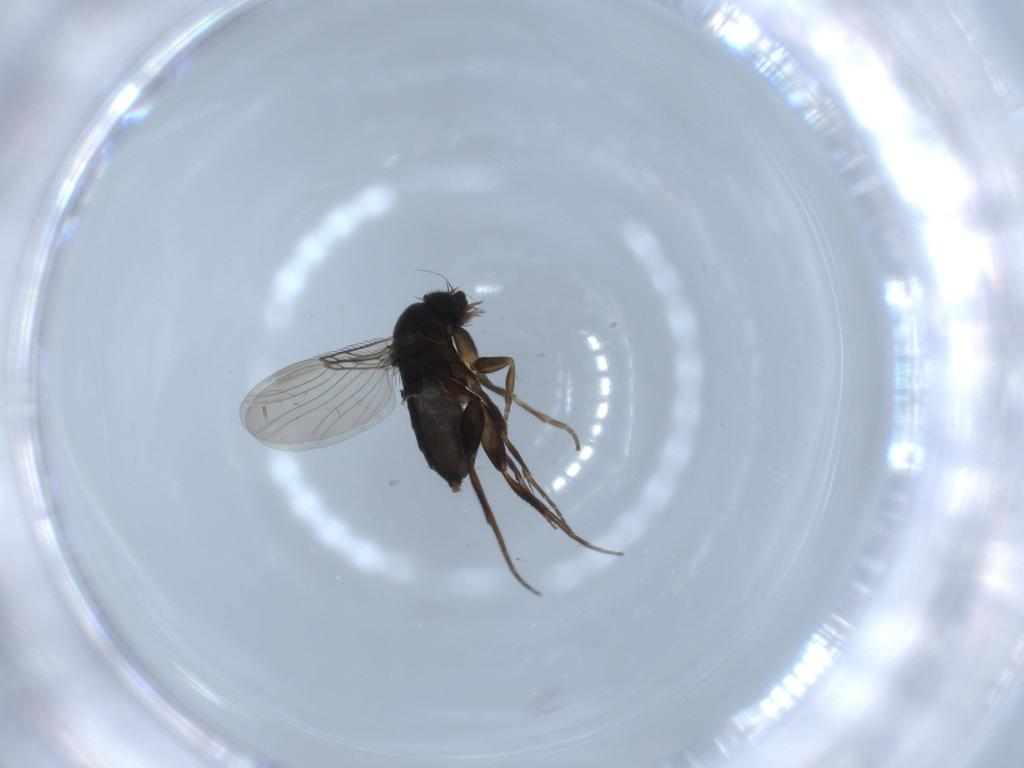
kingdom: Animalia
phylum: Arthropoda
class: Insecta
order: Diptera
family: Phoridae
